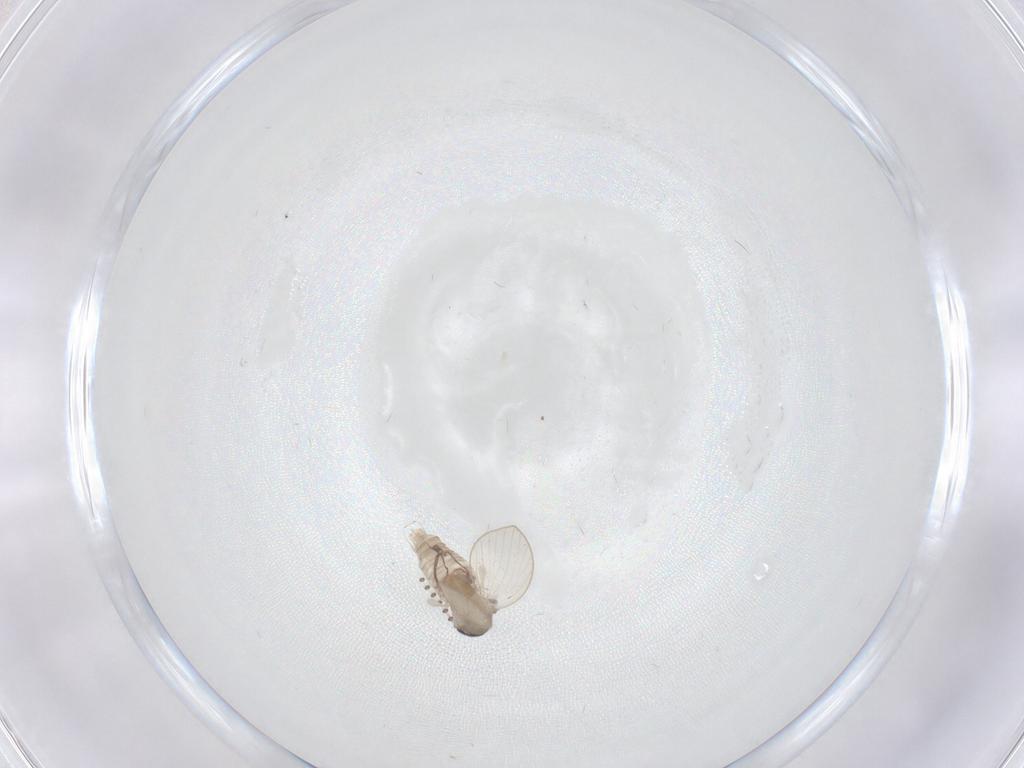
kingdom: Animalia
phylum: Arthropoda
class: Insecta
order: Diptera
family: Psychodidae
